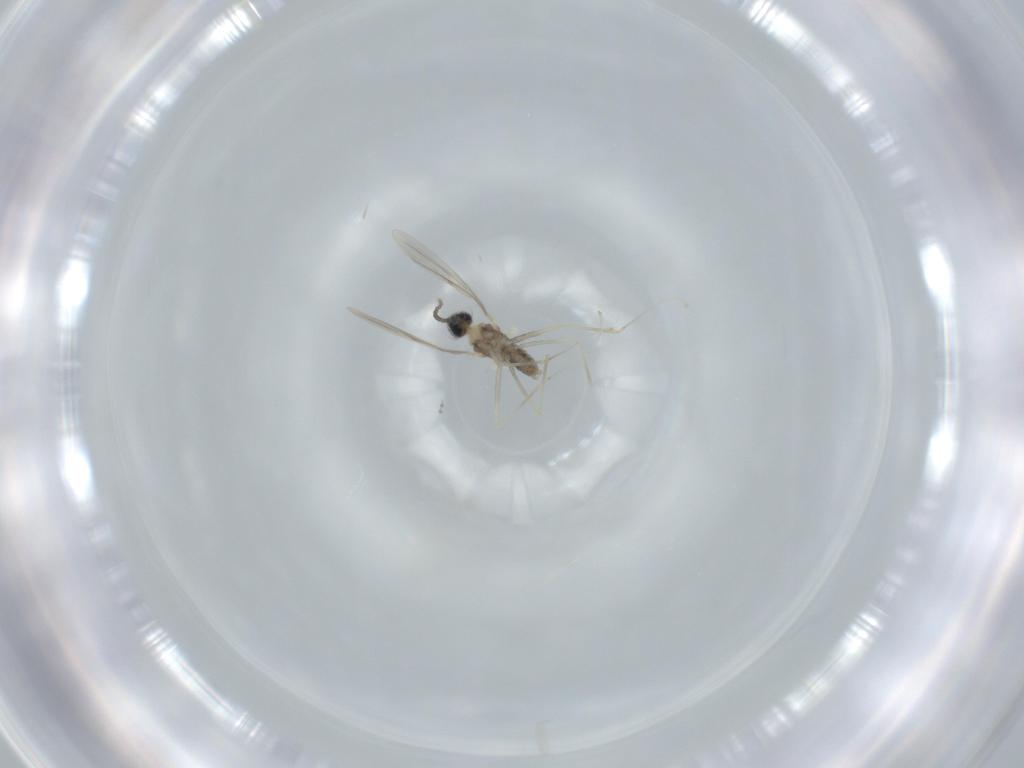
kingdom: Animalia
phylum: Arthropoda
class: Insecta
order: Diptera
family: Cecidomyiidae
